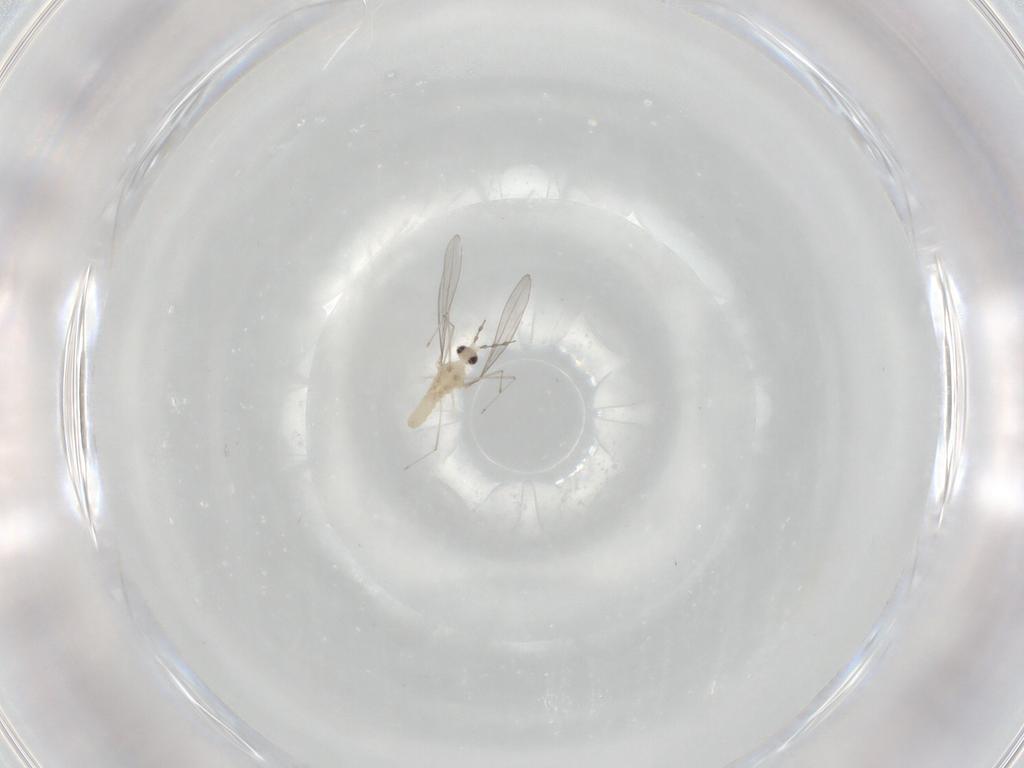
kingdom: Animalia
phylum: Arthropoda
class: Insecta
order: Diptera
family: Cecidomyiidae
